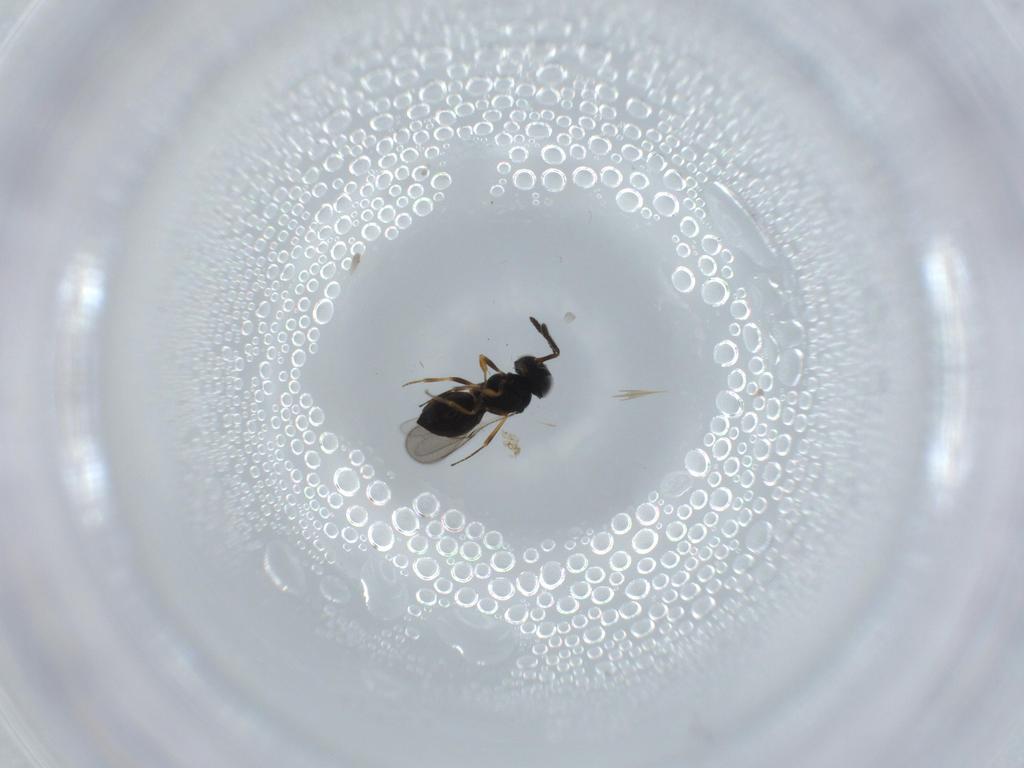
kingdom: Animalia
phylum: Arthropoda
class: Insecta
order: Hymenoptera
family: Scelionidae
